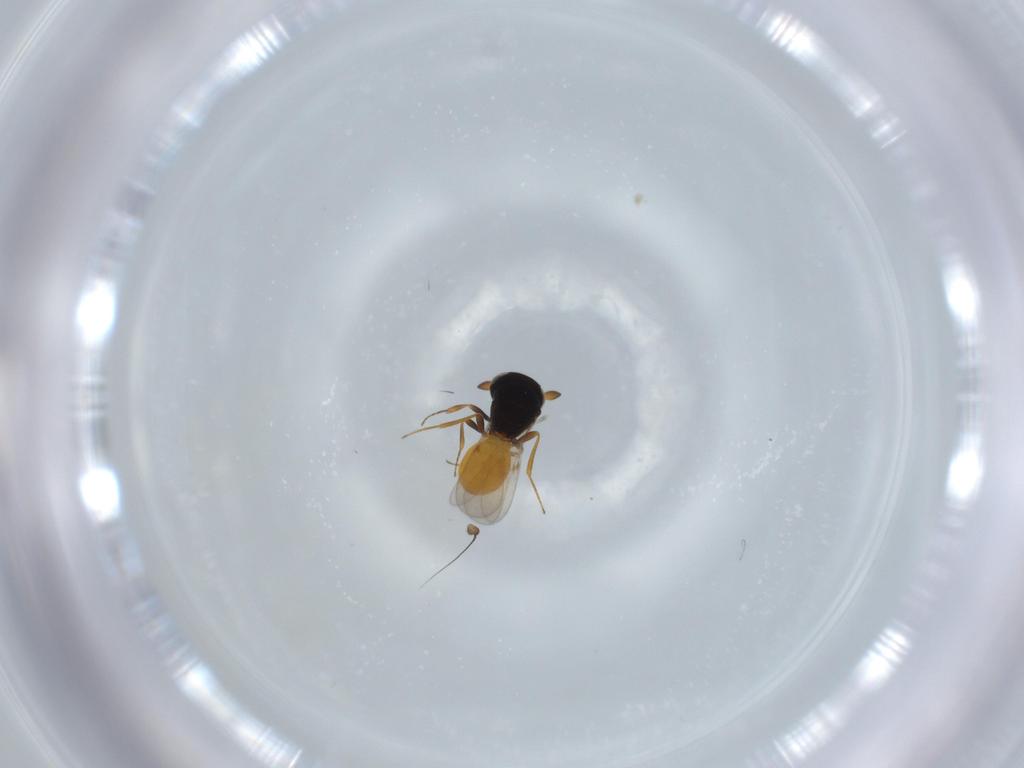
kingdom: Animalia
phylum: Arthropoda
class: Insecta
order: Hymenoptera
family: Scelionidae
